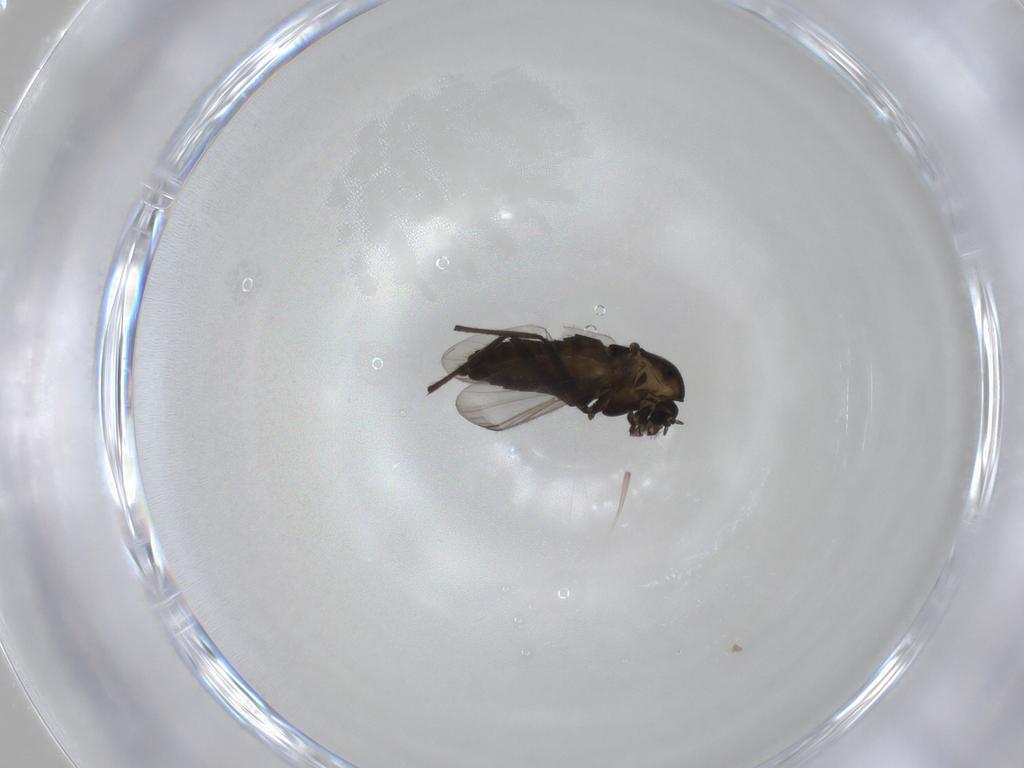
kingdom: Animalia
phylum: Arthropoda
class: Insecta
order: Diptera
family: Chironomidae
